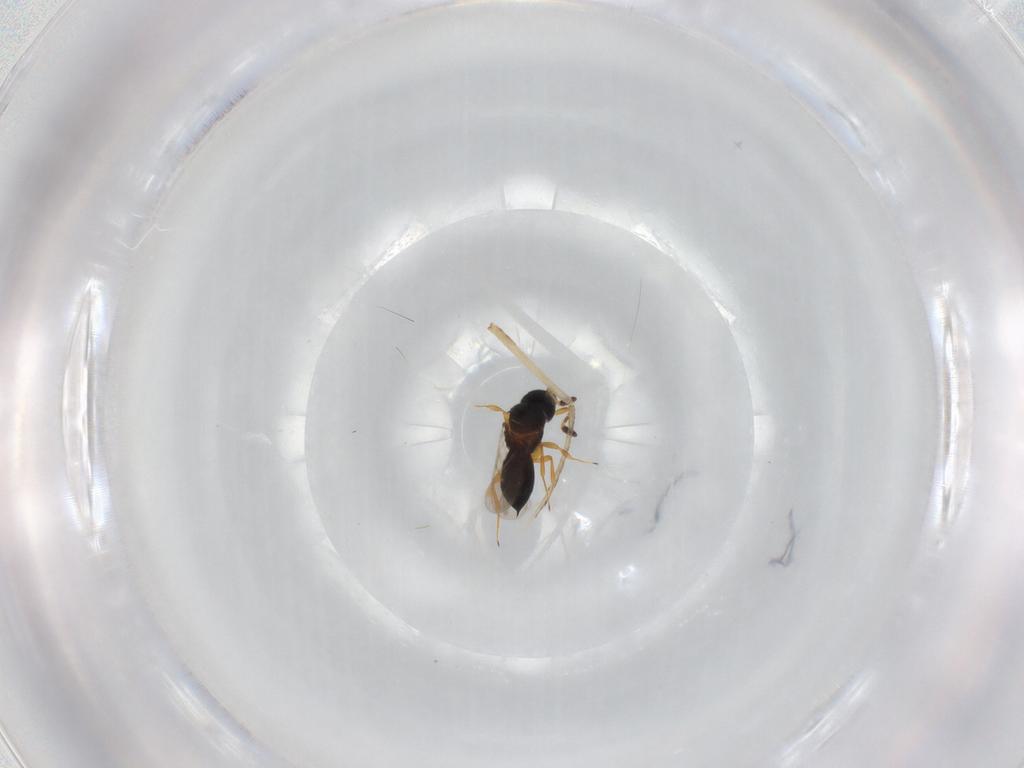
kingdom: Animalia
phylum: Arthropoda
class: Insecta
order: Hymenoptera
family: Scelionidae
